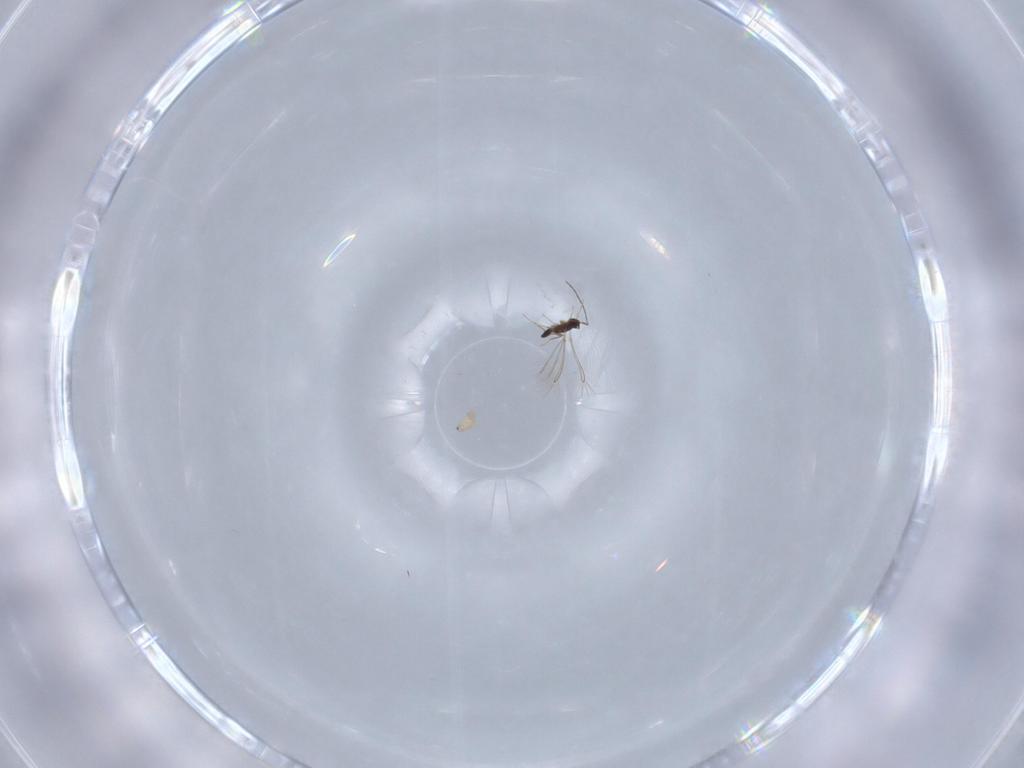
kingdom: Animalia
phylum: Arthropoda
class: Insecta
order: Hymenoptera
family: Mymaridae
